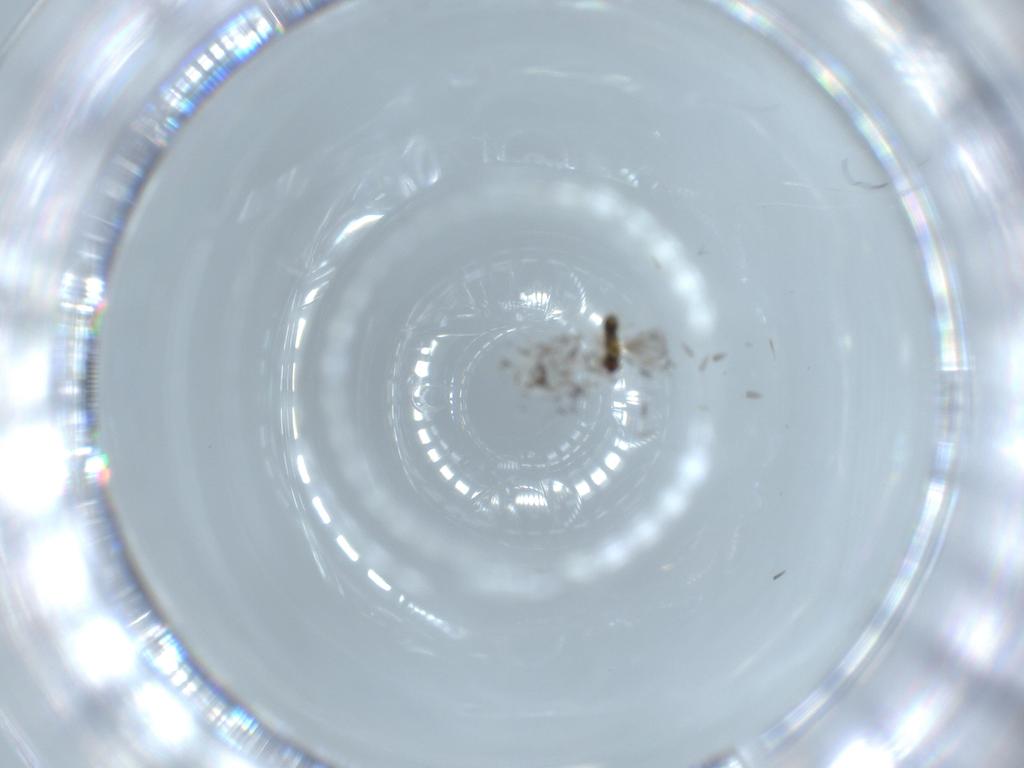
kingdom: Animalia
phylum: Arthropoda
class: Insecta
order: Hymenoptera
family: Aphelinidae
